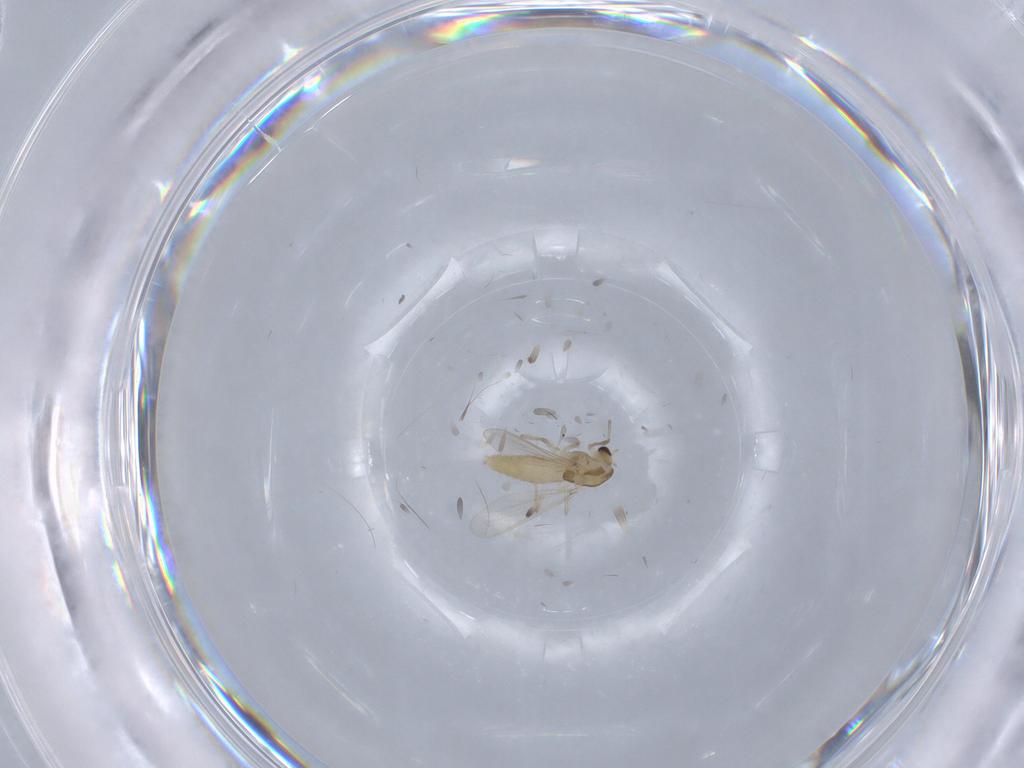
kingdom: Animalia
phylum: Arthropoda
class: Insecta
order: Diptera
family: Chironomidae
